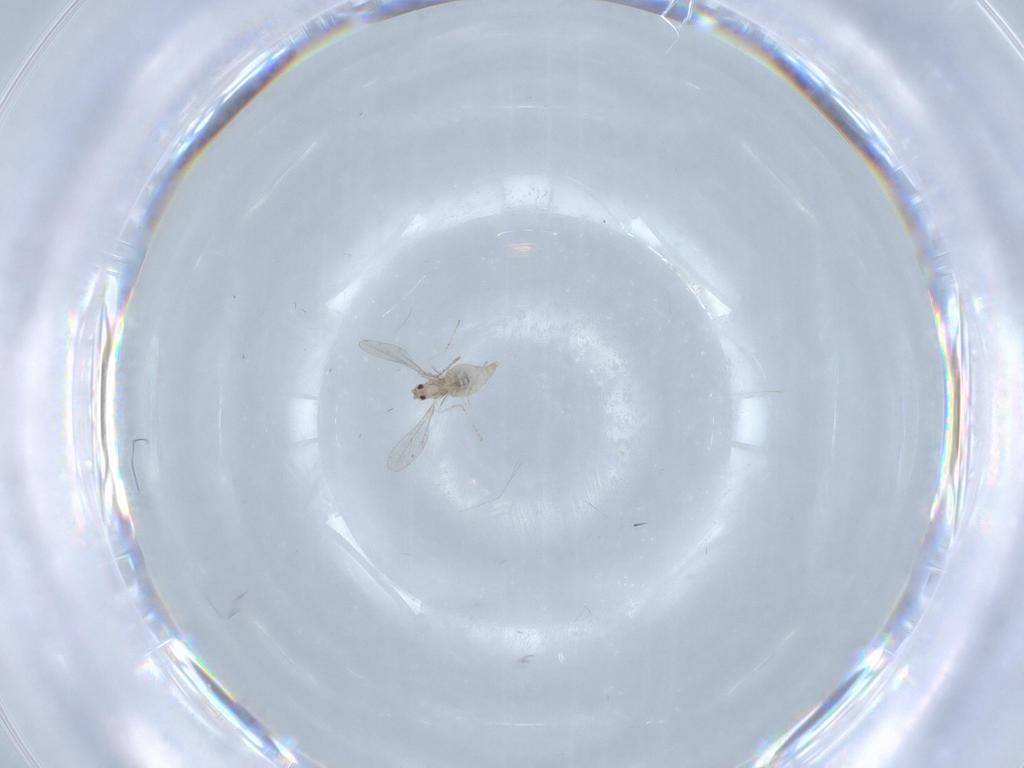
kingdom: Animalia
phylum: Arthropoda
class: Insecta
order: Diptera
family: Cecidomyiidae
